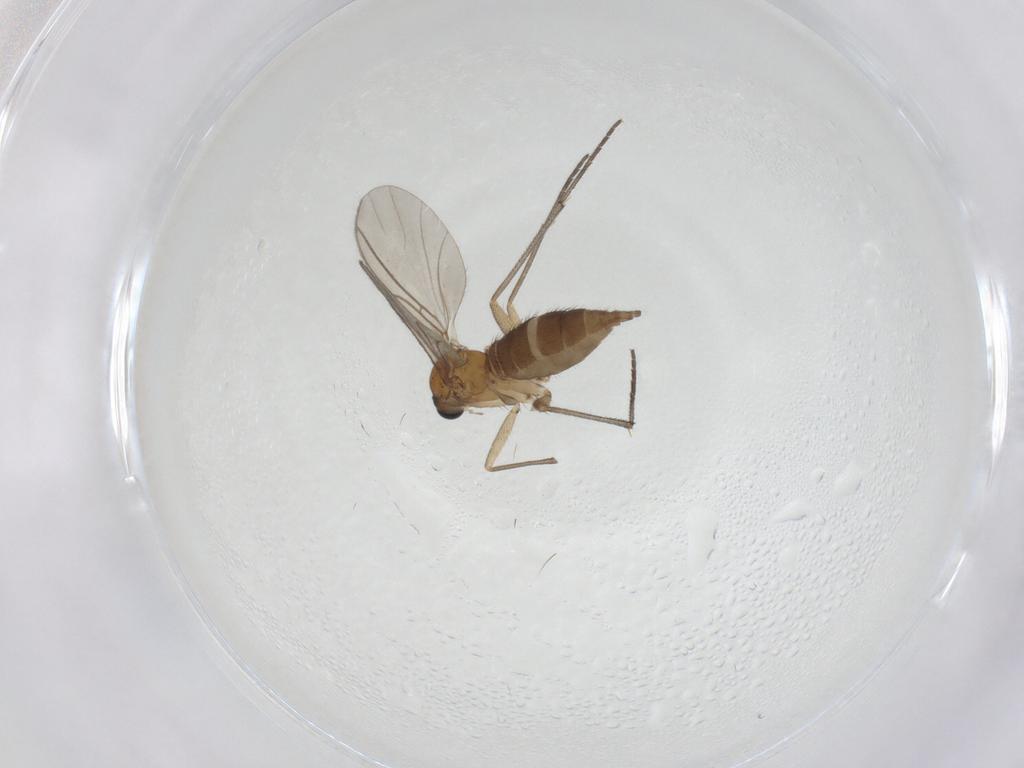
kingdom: Animalia
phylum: Arthropoda
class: Insecta
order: Diptera
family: Sciaridae
